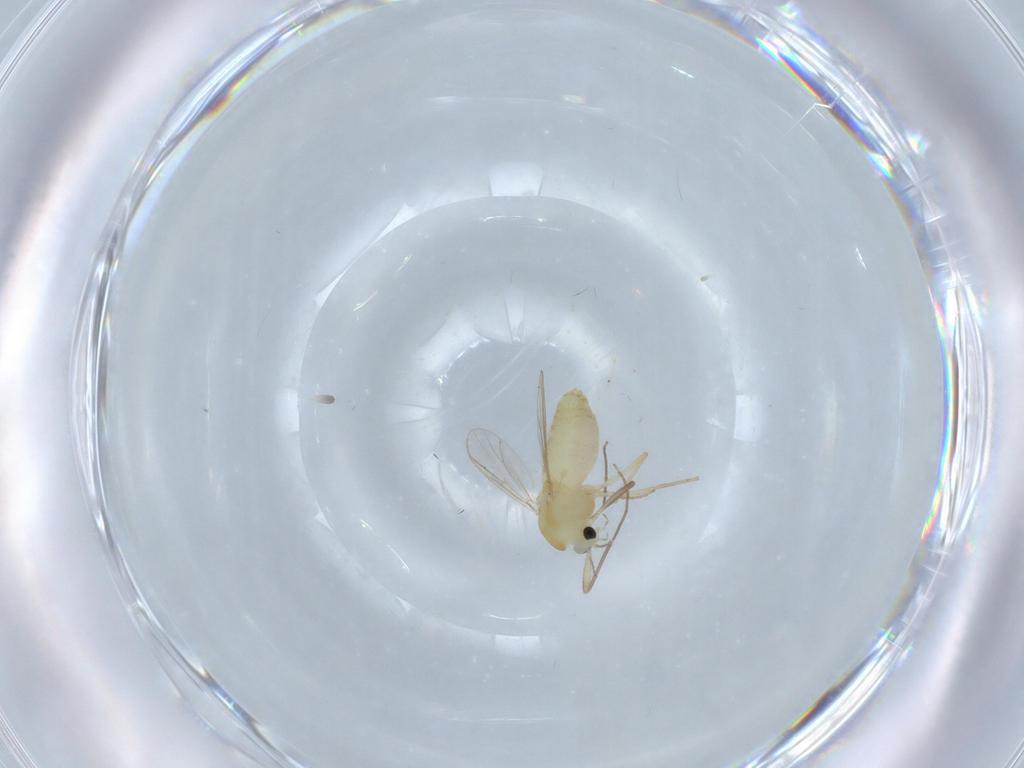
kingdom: Animalia
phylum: Arthropoda
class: Insecta
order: Diptera
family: Chironomidae
